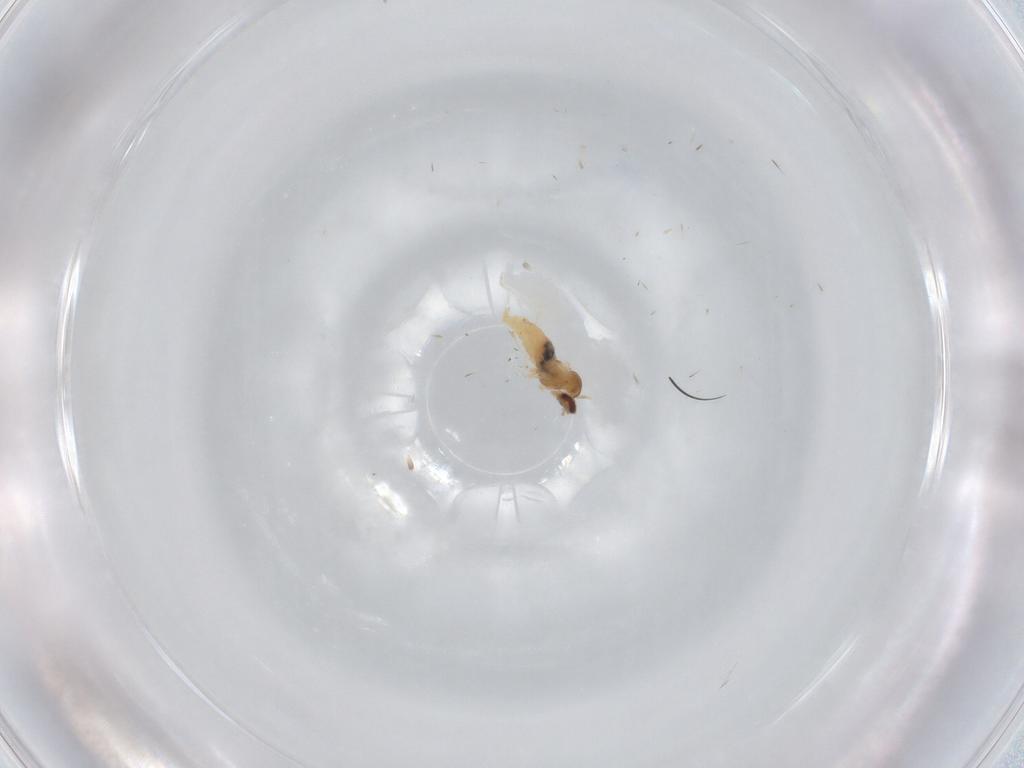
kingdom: Animalia
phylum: Arthropoda
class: Insecta
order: Diptera
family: Cecidomyiidae
